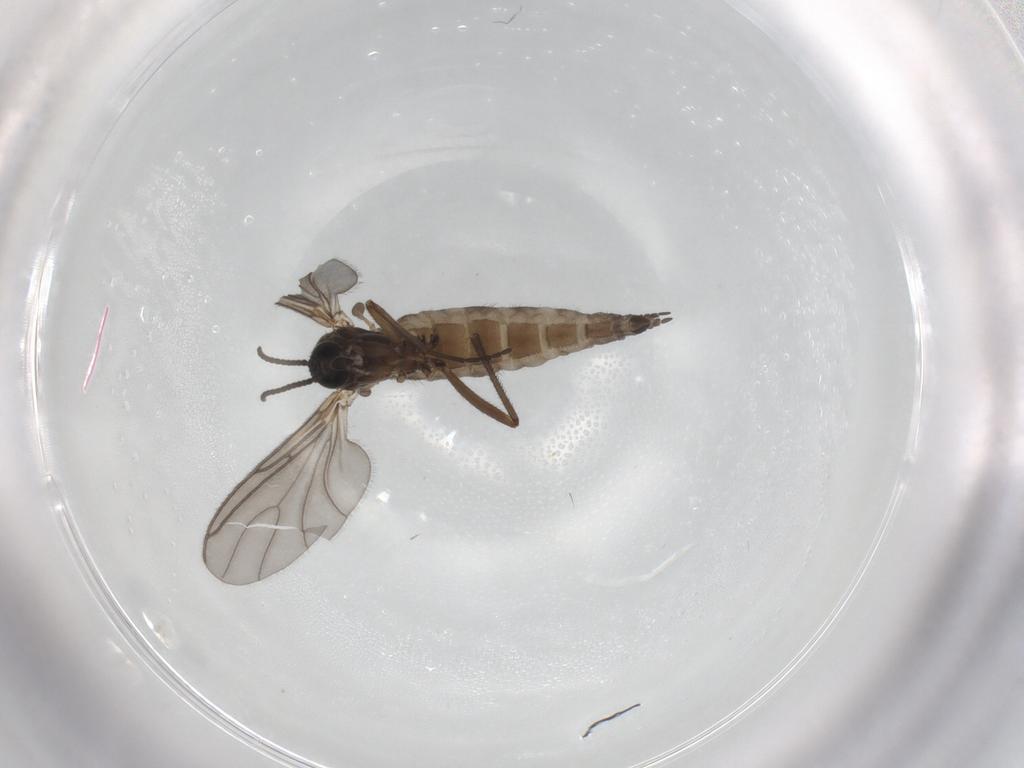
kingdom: Animalia
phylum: Arthropoda
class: Insecta
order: Diptera
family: Sciaridae
